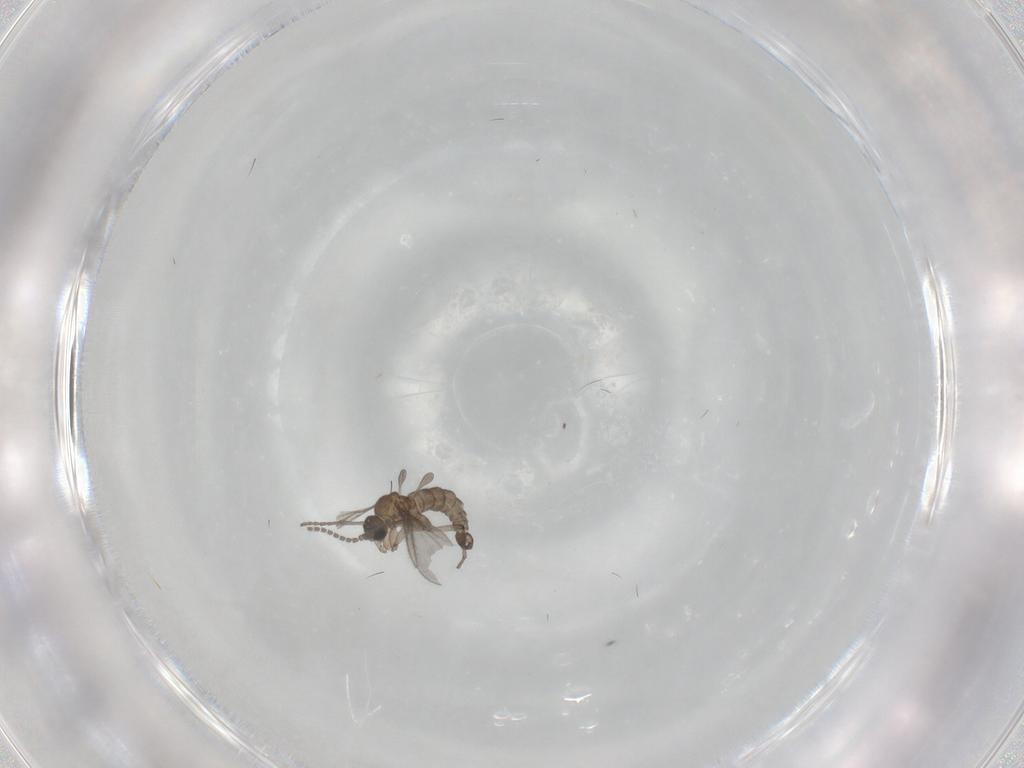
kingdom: Animalia
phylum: Arthropoda
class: Insecta
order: Diptera
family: Sciaridae
